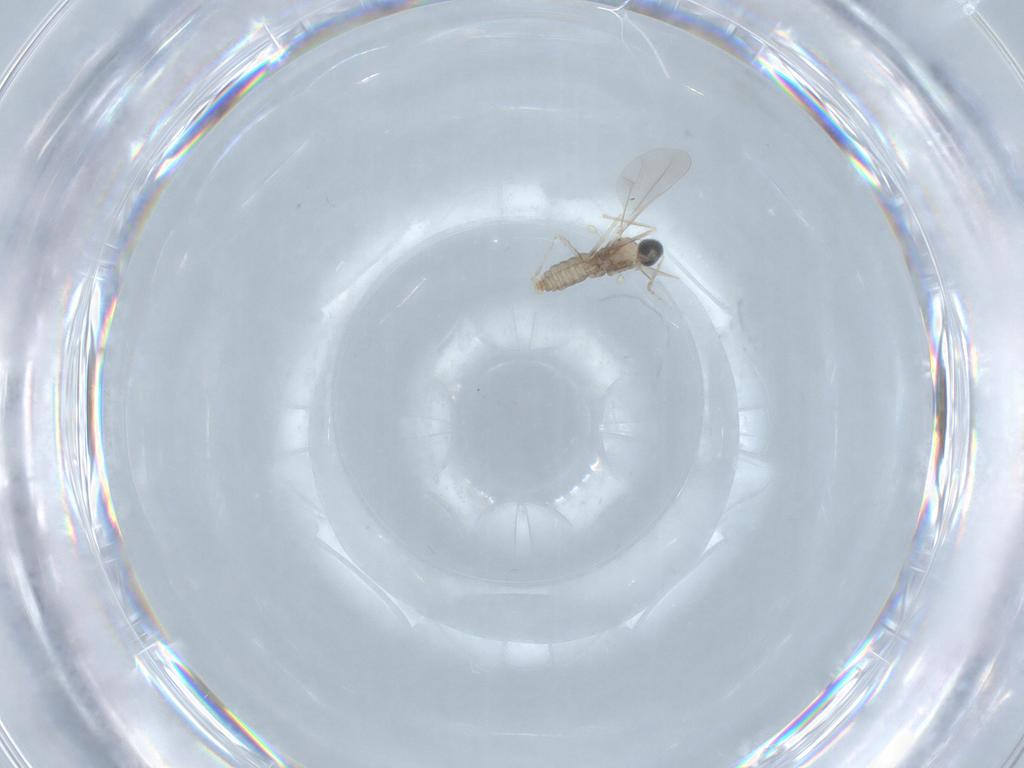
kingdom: Animalia
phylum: Arthropoda
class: Insecta
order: Diptera
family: Cecidomyiidae
